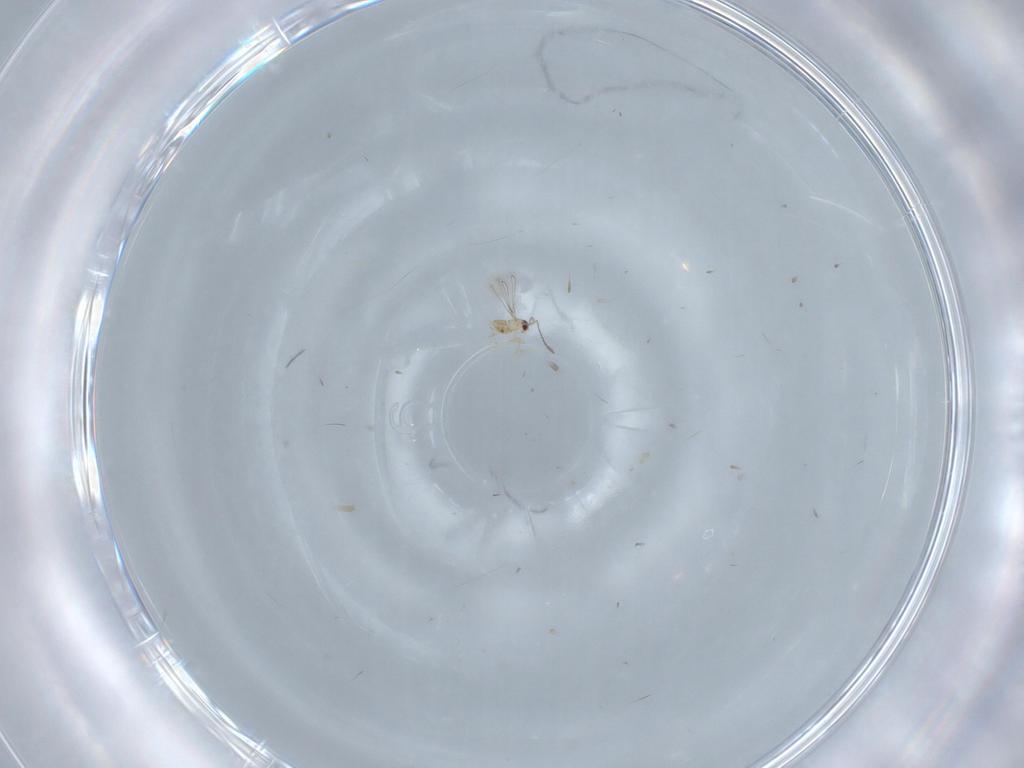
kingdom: Animalia
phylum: Arthropoda
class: Insecta
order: Hymenoptera
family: Mymaridae
